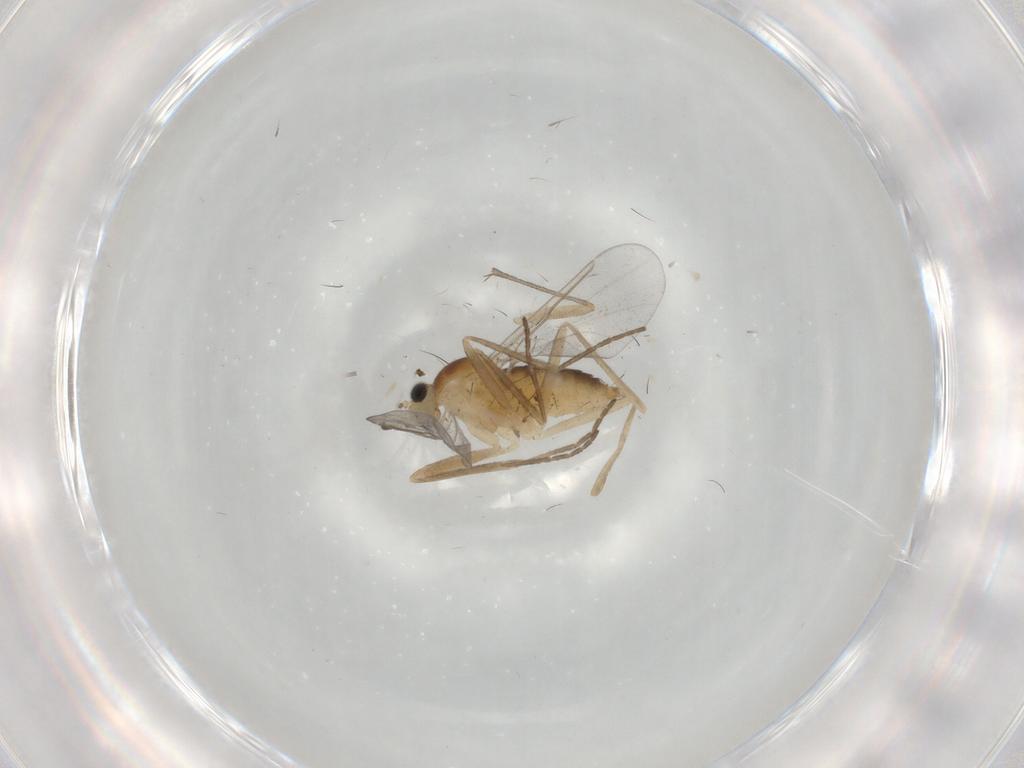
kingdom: Animalia
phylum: Arthropoda
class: Insecta
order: Diptera
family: Cecidomyiidae
